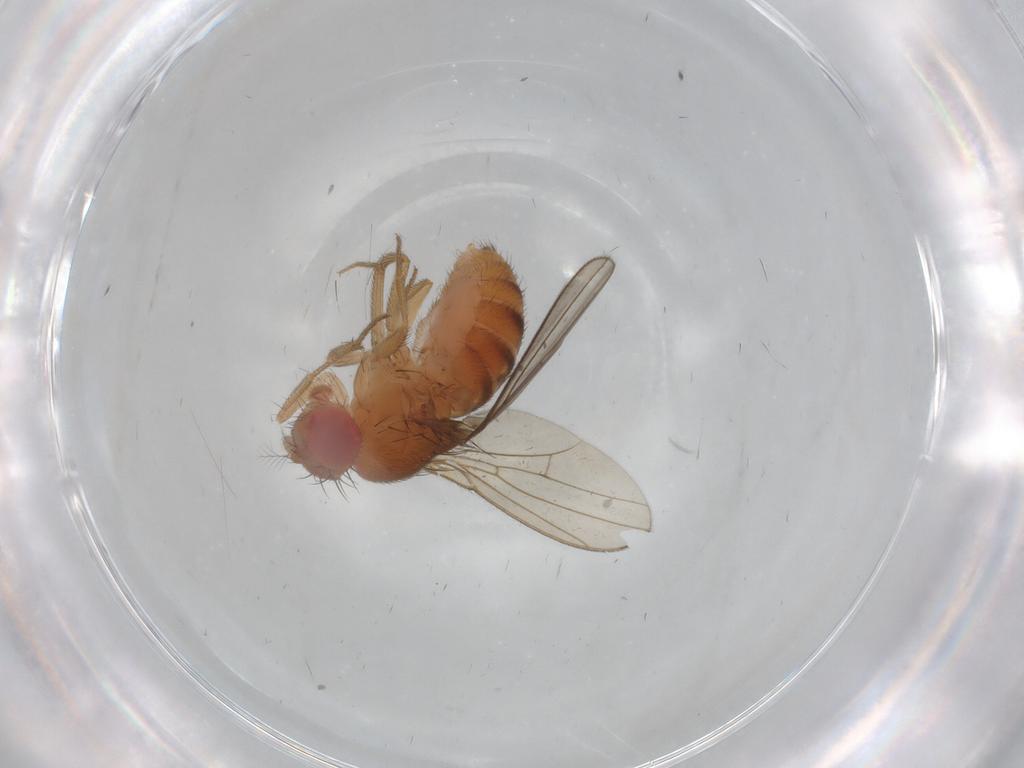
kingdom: Animalia
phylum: Arthropoda
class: Insecta
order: Diptera
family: Drosophilidae
